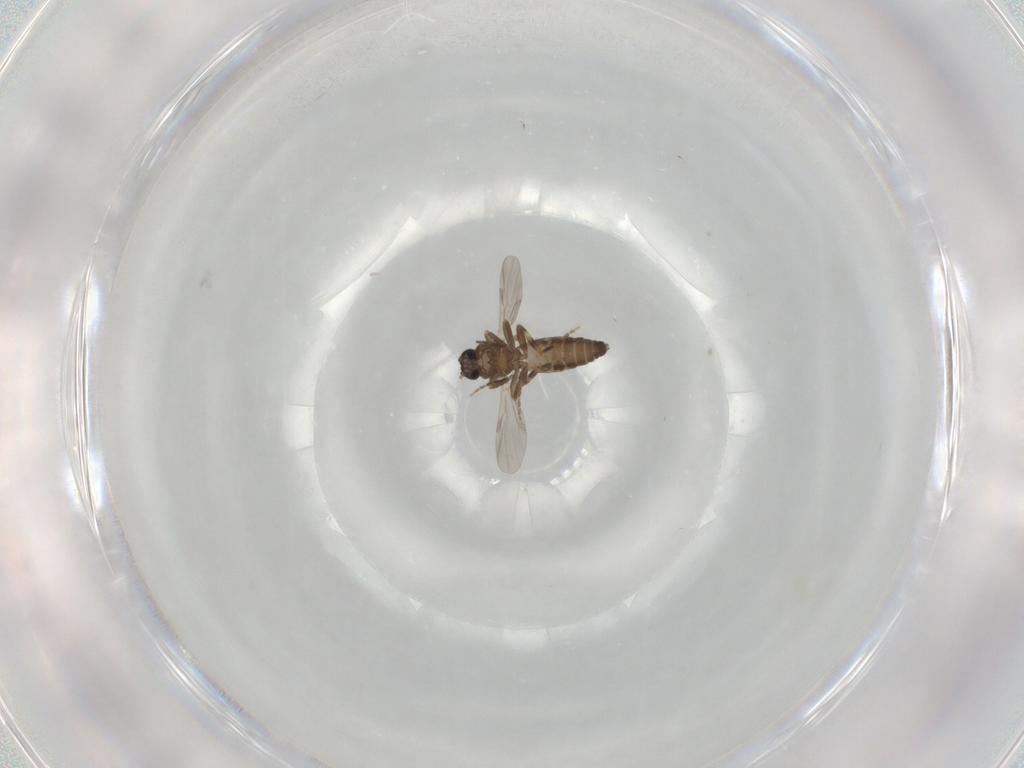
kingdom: Animalia
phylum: Arthropoda
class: Insecta
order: Diptera
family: Ceratopogonidae
